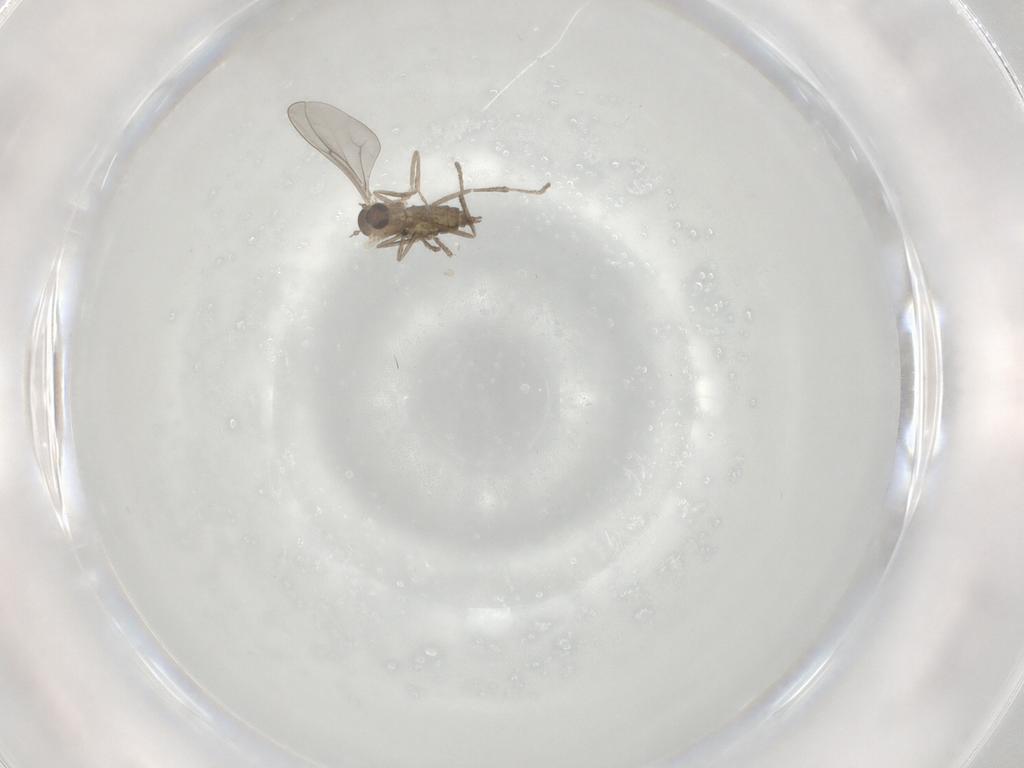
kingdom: Animalia
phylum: Arthropoda
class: Insecta
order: Diptera
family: Cecidomyiidae
